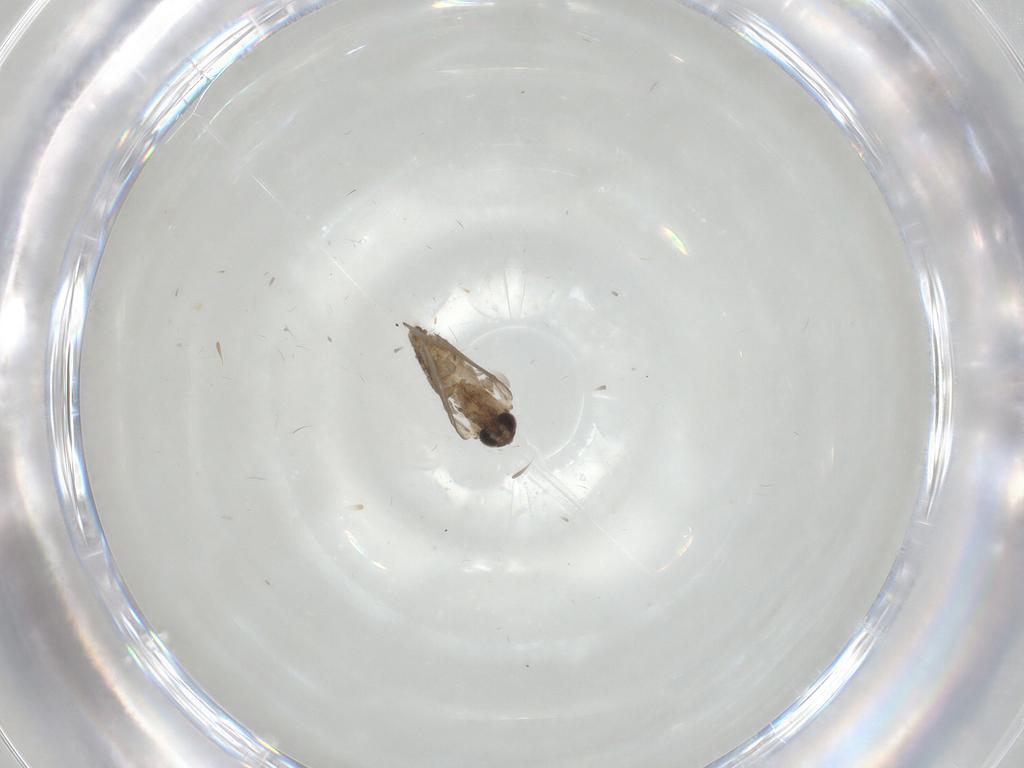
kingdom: Animalia
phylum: Arthropoda
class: Insecta
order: Diptera
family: Psychodidae
